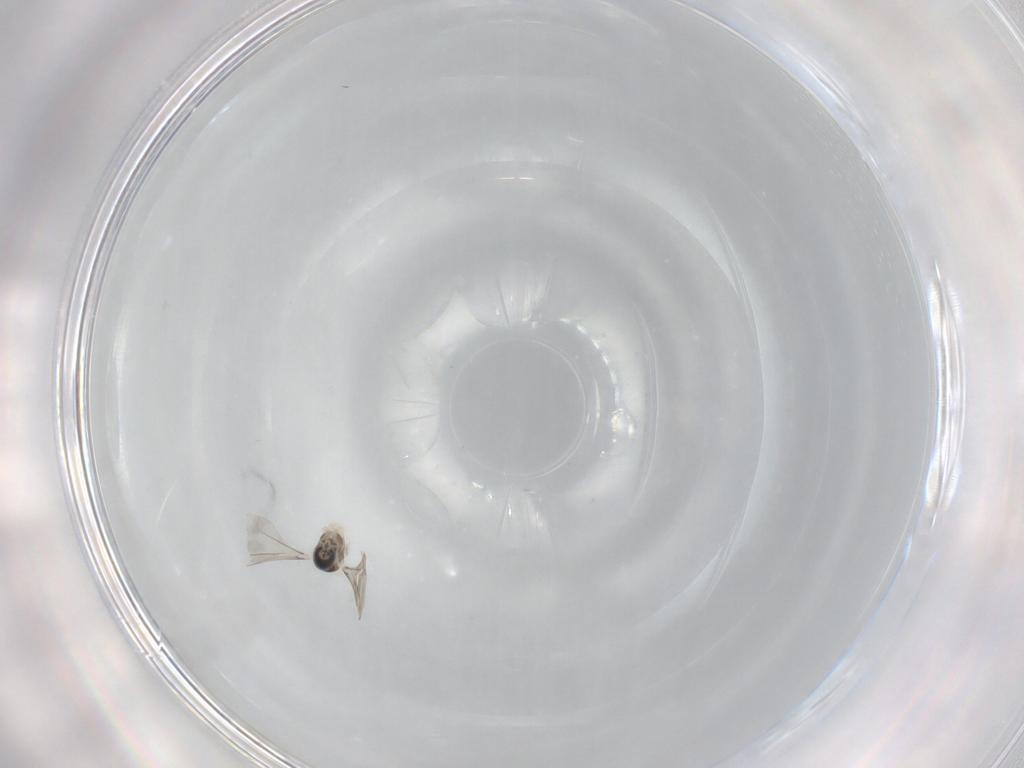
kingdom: Animalia
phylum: Arthropoda
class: Insecta
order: Diptera
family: Cecidomyiidae
